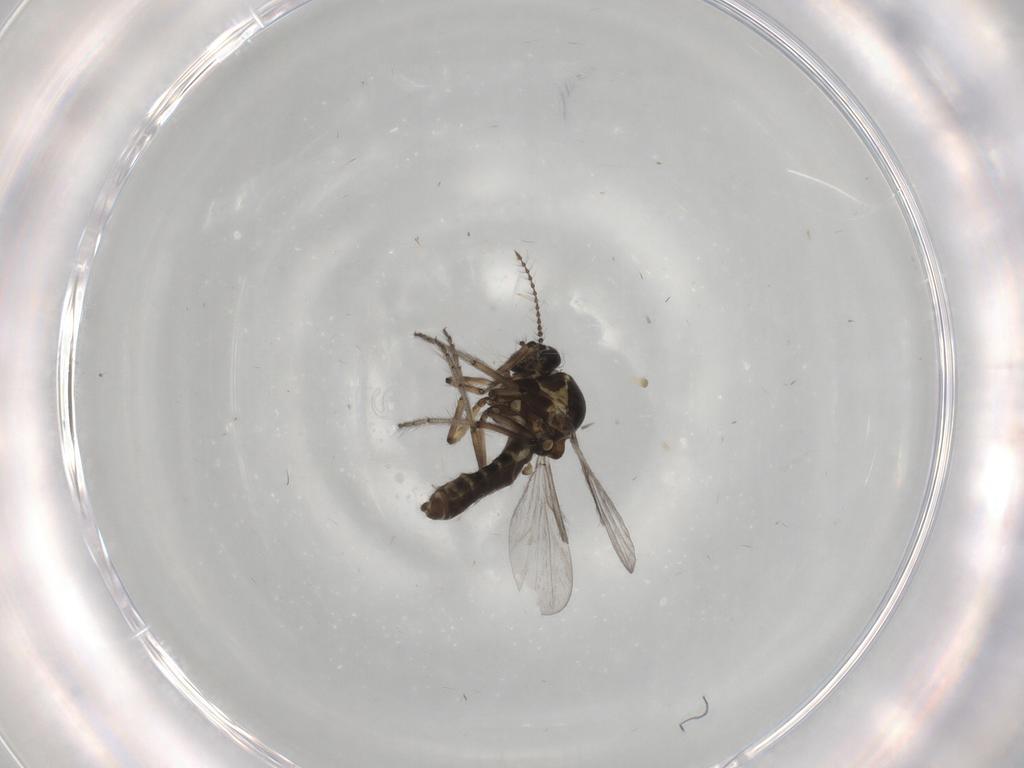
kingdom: Animalia
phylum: Arthropoda
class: Insecta
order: Diptera
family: Ceratopogonidae
